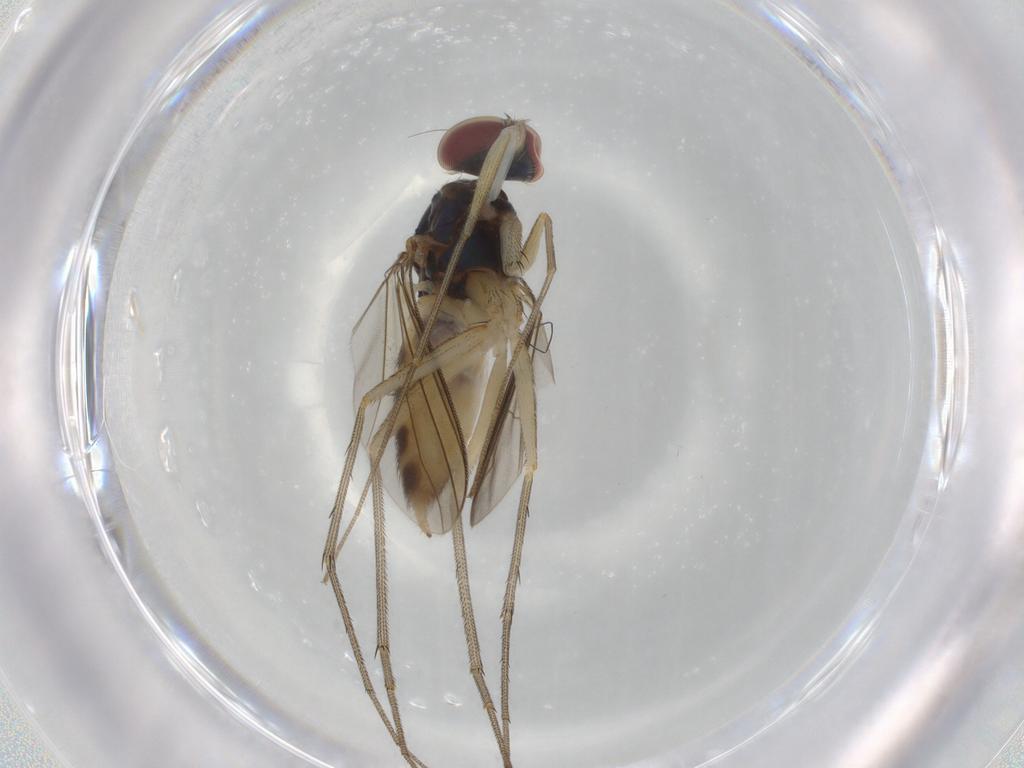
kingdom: Animalia
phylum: Arthropoda
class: Insecta
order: Diptera
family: Dolichopodidae
